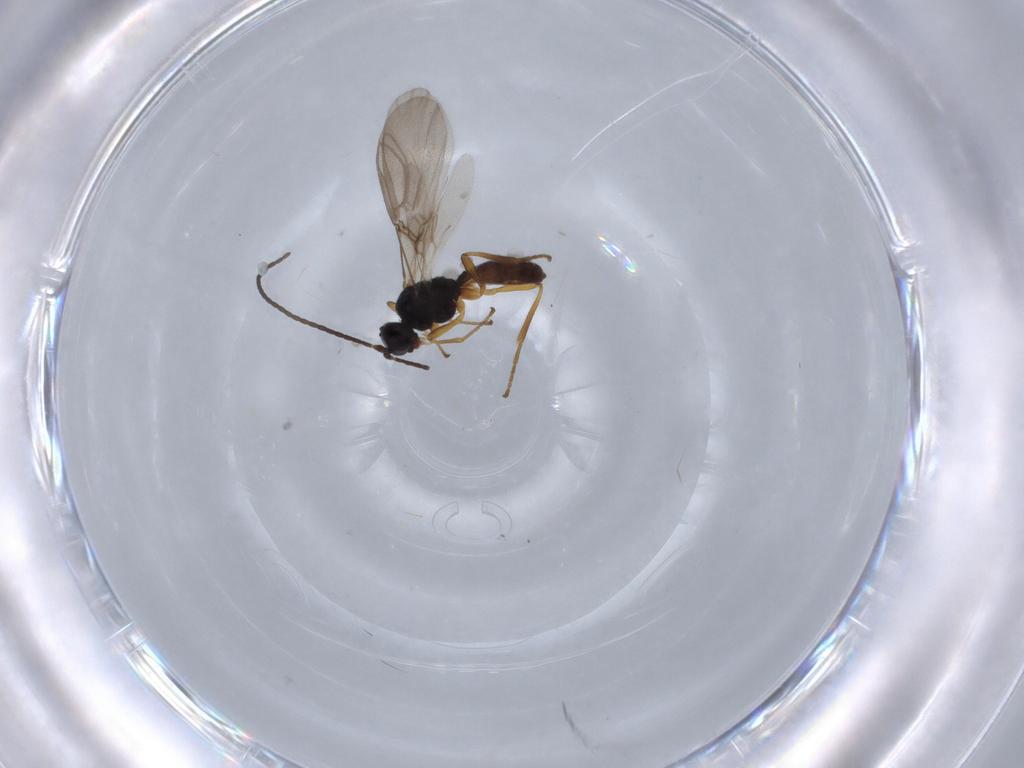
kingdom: Animalia
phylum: Arthropoda
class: Insecta
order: Hymenoptera
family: Braconidae
